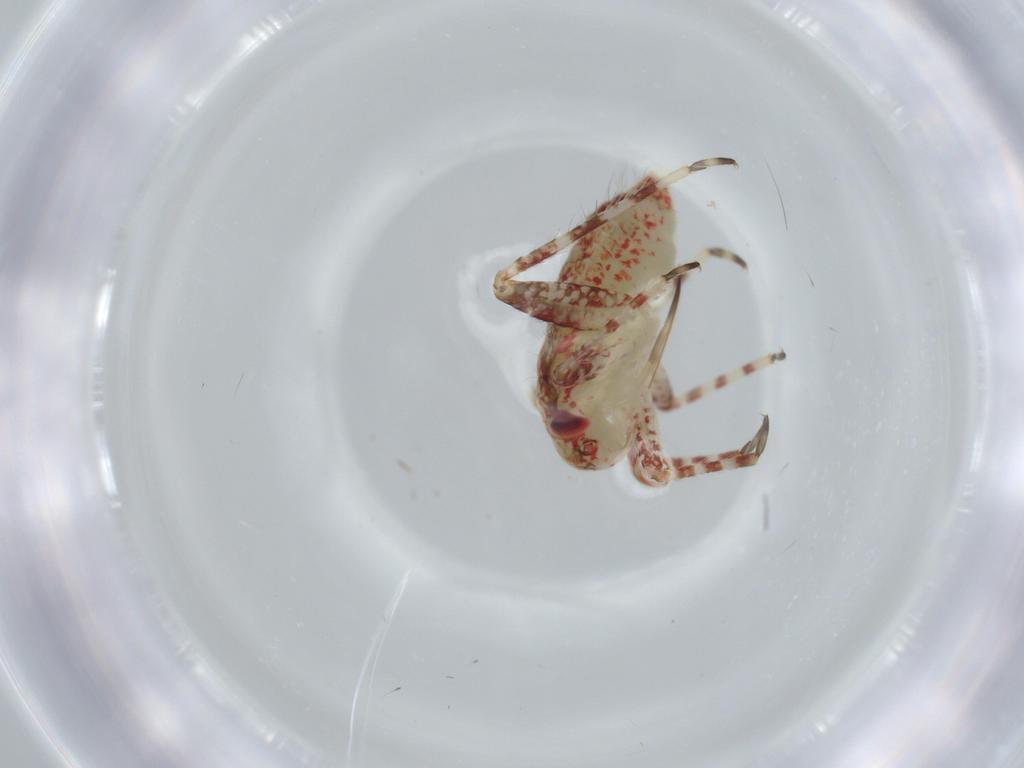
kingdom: Animalia
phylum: Arthropoda
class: Insecta
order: Hemiptera
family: Miridae
